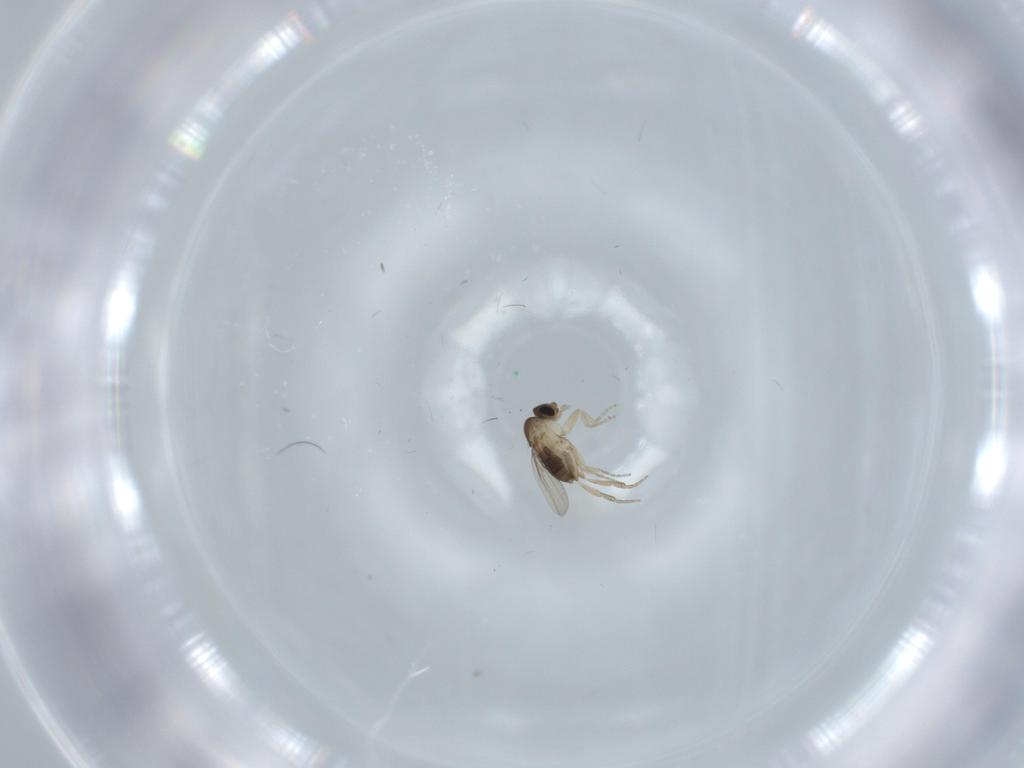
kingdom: Animalia
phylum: Arthropoda
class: Insecta
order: Diptera
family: Phoridae
